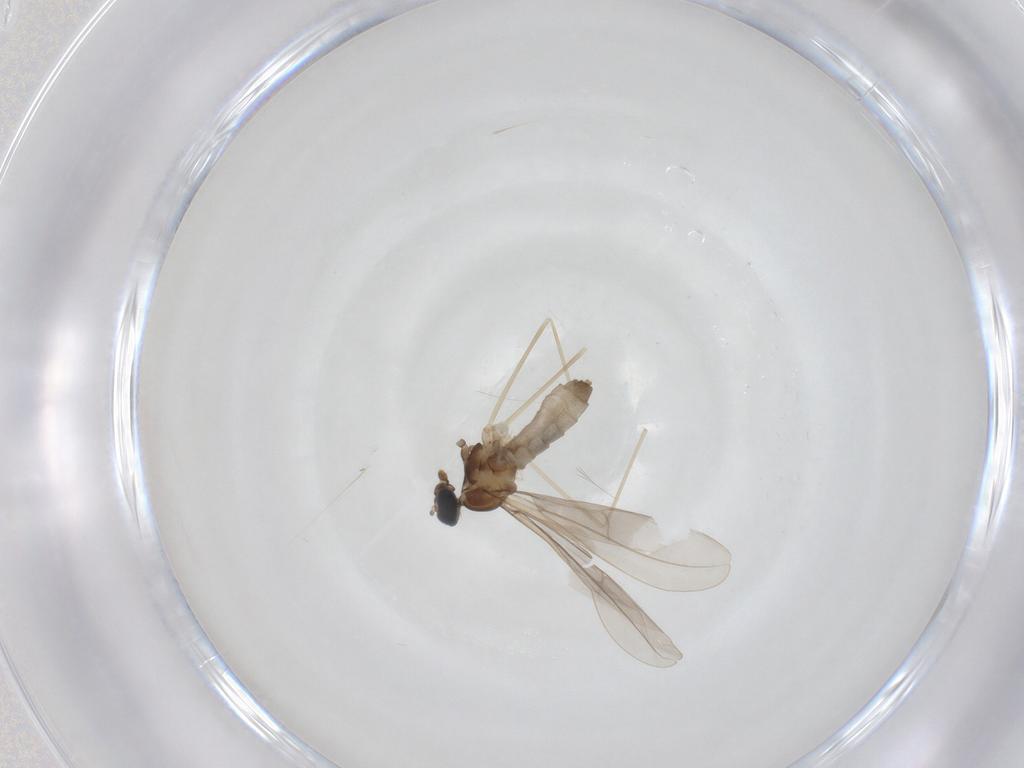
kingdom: Animalia
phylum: Arthropoda
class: Insecta
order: Diptera
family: Cecidomyiidae
